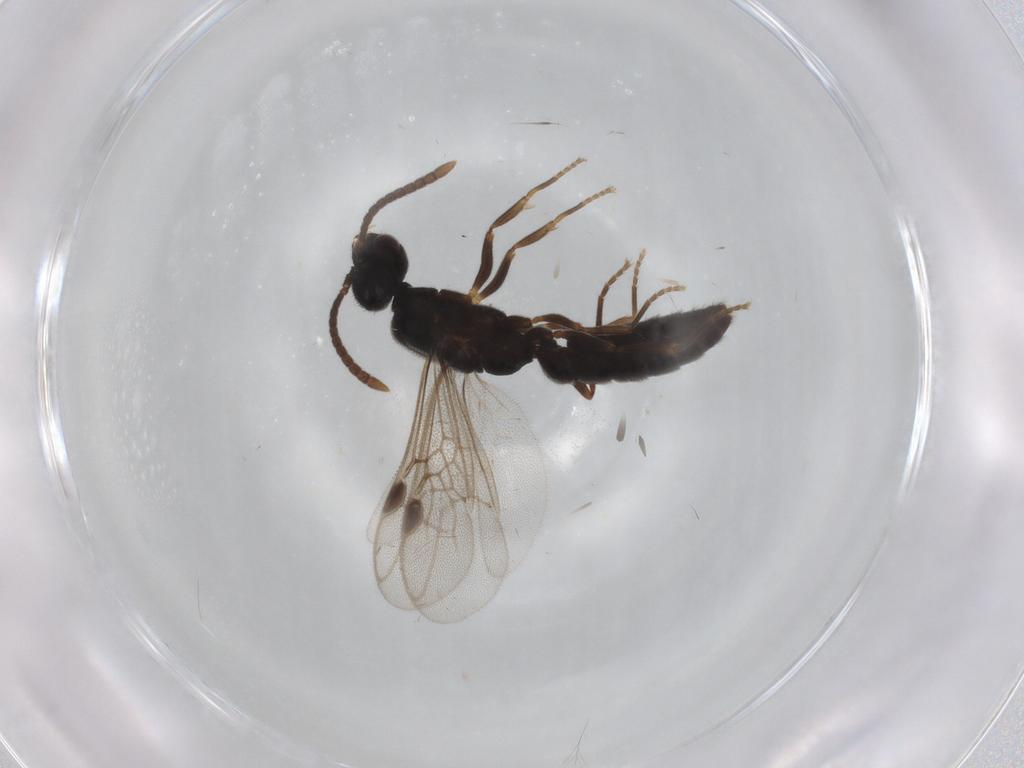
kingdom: Animalia
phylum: Arthropoda
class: Insecta
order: Hymenoptera
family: Formicidae
